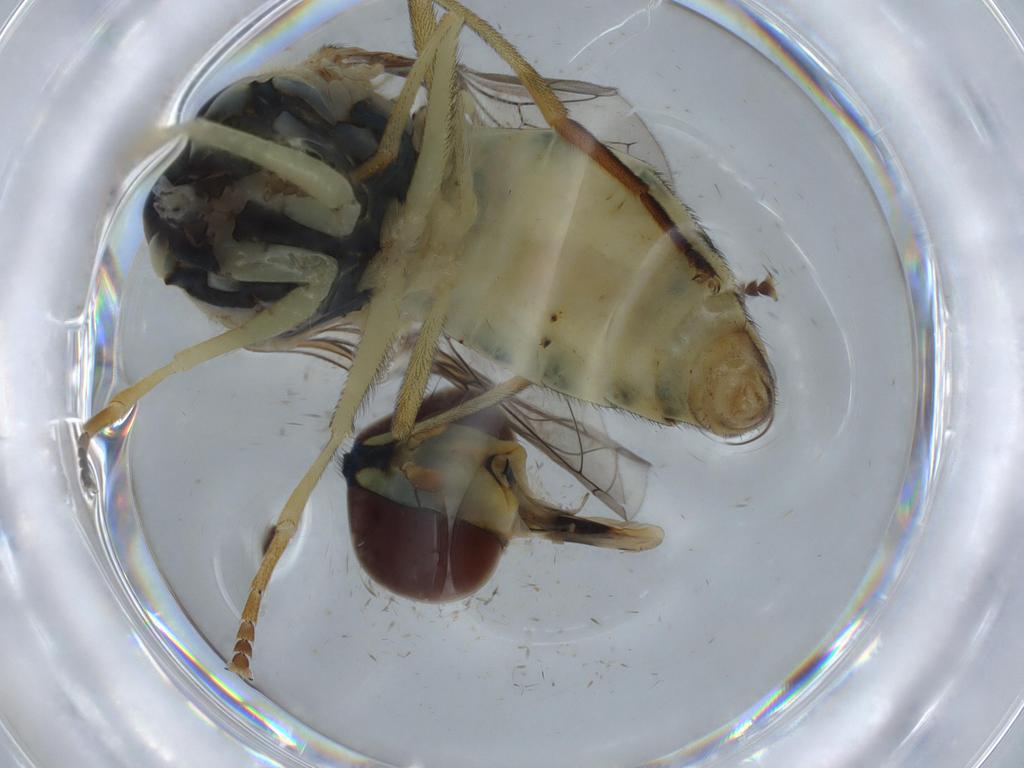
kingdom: Animalia
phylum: Arthropoda
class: Insecta
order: Diptera
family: Syrphidae
